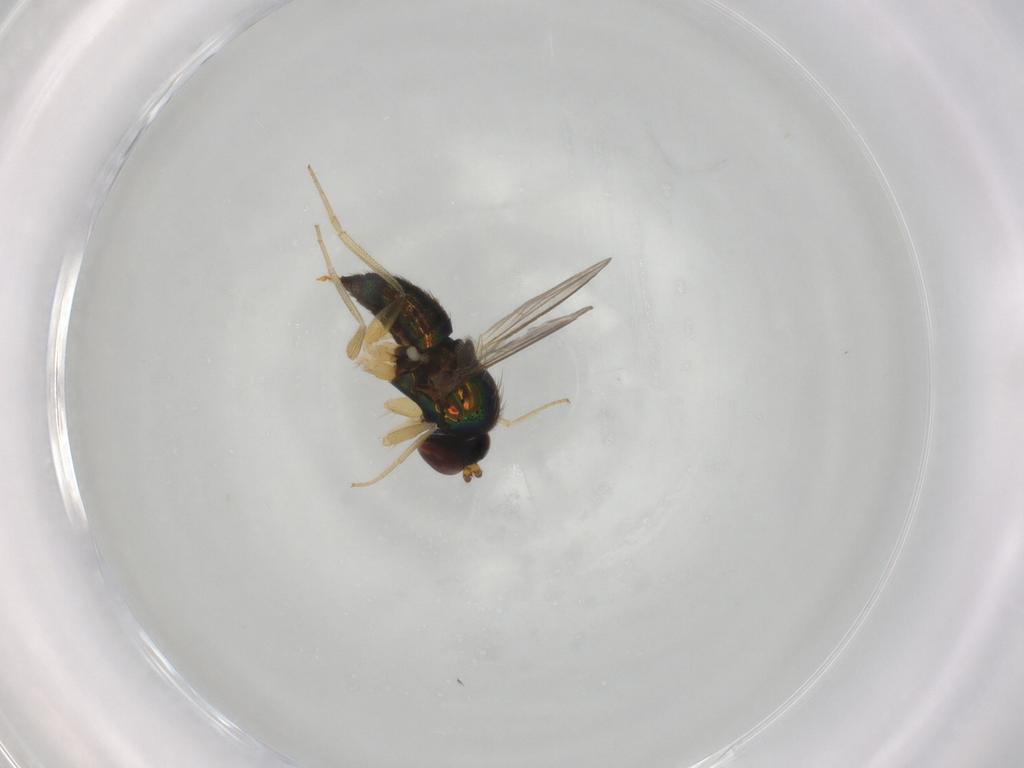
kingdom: Animalia
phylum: Arthropoda
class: Insecta
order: Diptera
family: Dolichopodidae
